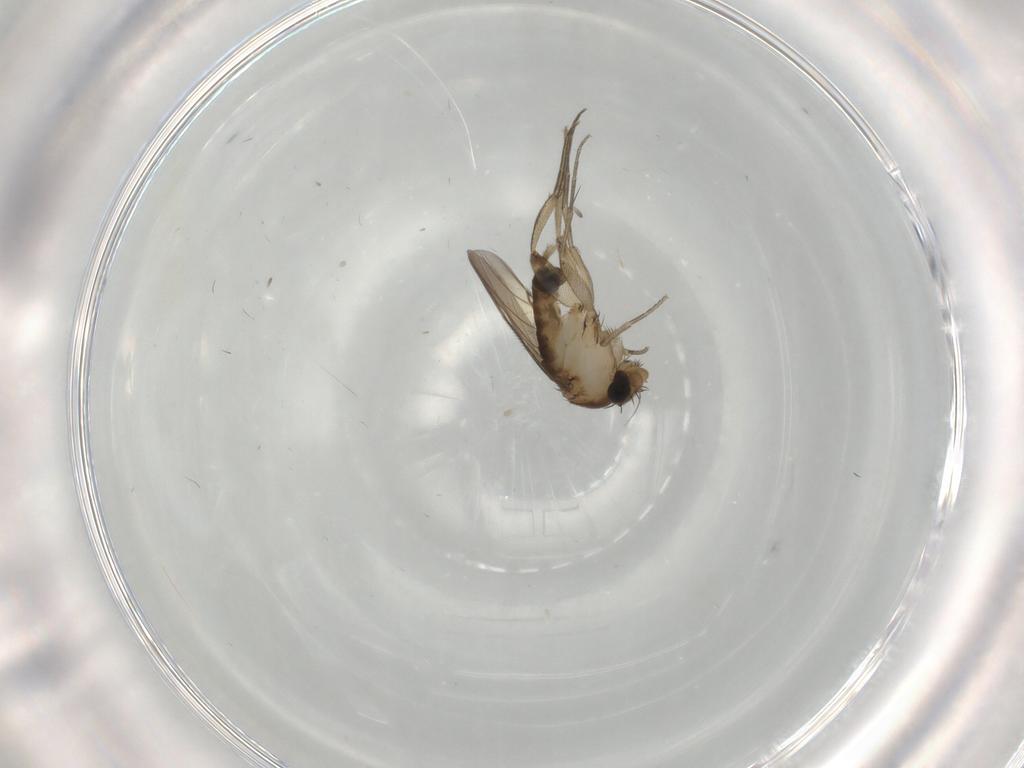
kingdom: Animalia
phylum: Arthropoda
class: Insecta
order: Diptera
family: Phoridae
